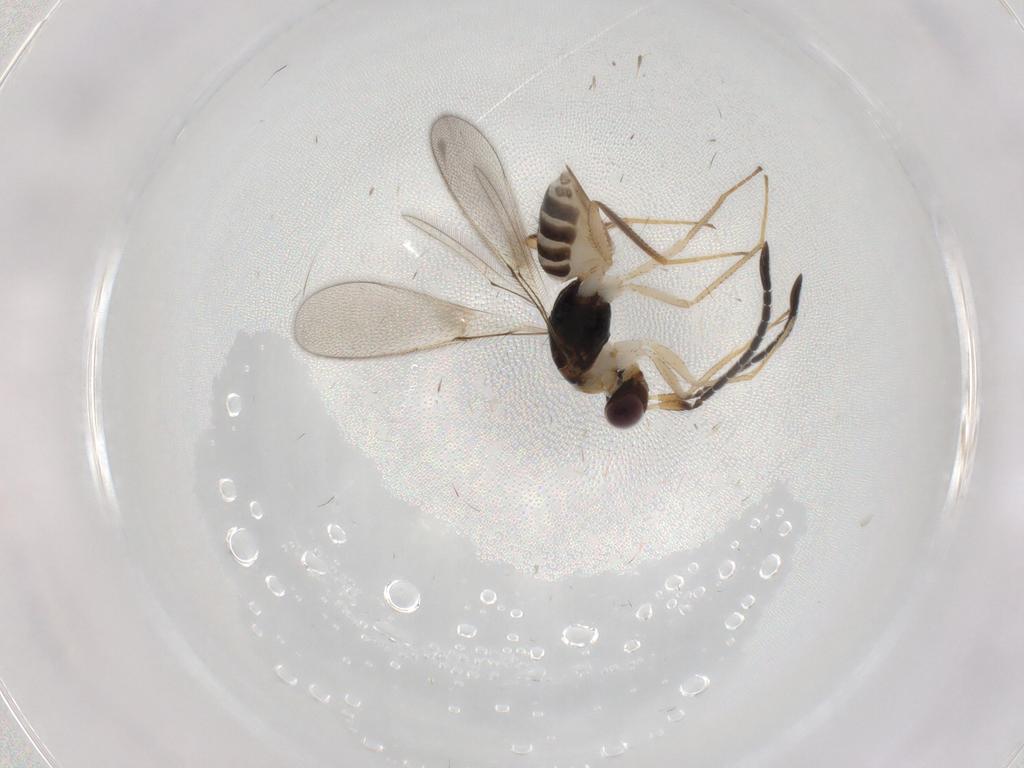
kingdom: Animalia
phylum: Arthropoda
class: Insecta
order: Hymenoptera
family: Mymaridae
